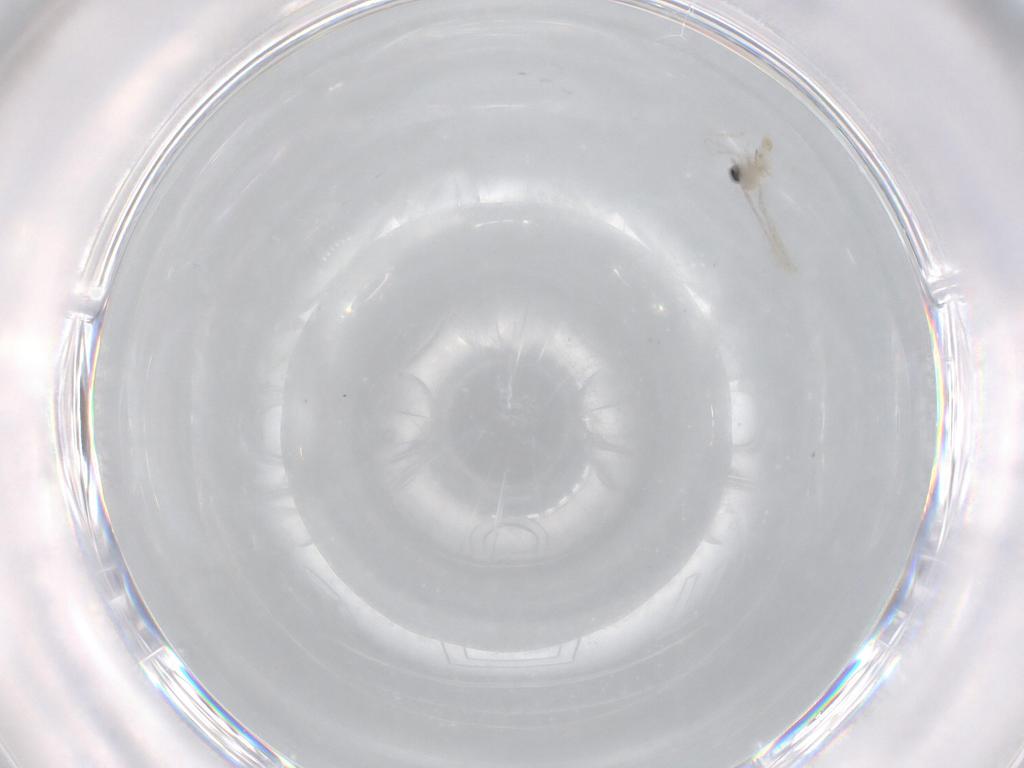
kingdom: Animalia
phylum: Arthropoda
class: Insecta
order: Diptera
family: Cecidomyiidae
